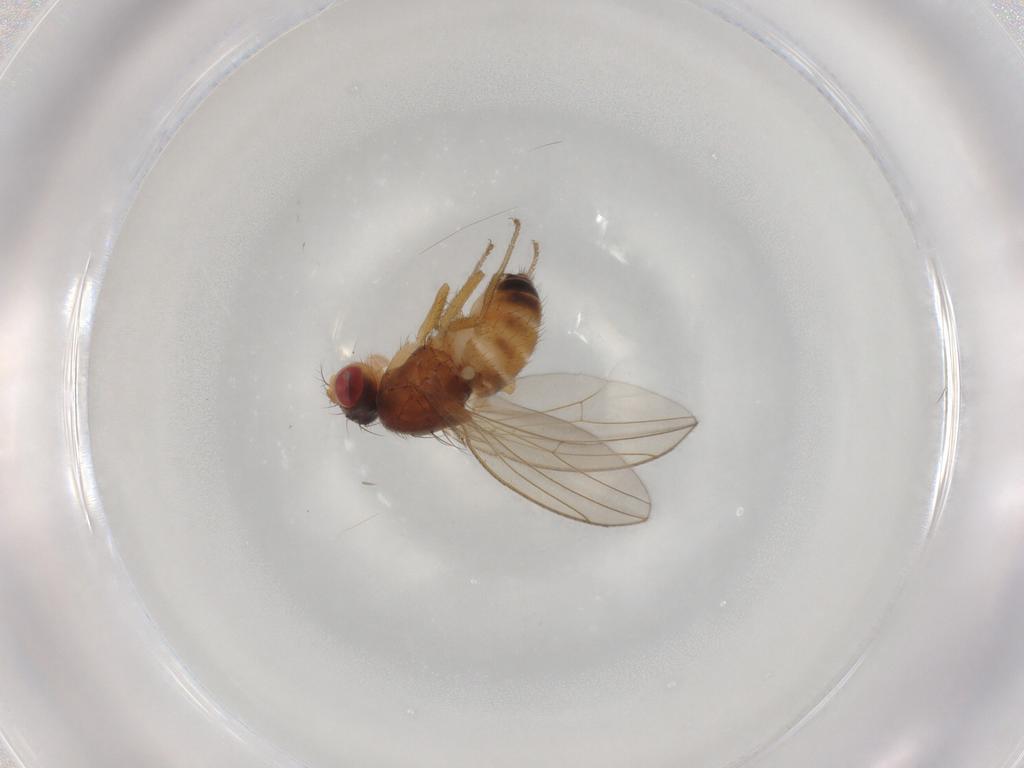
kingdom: Animalia
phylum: Arthropoda
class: Insecta
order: Diptera
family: Drosophilidae
